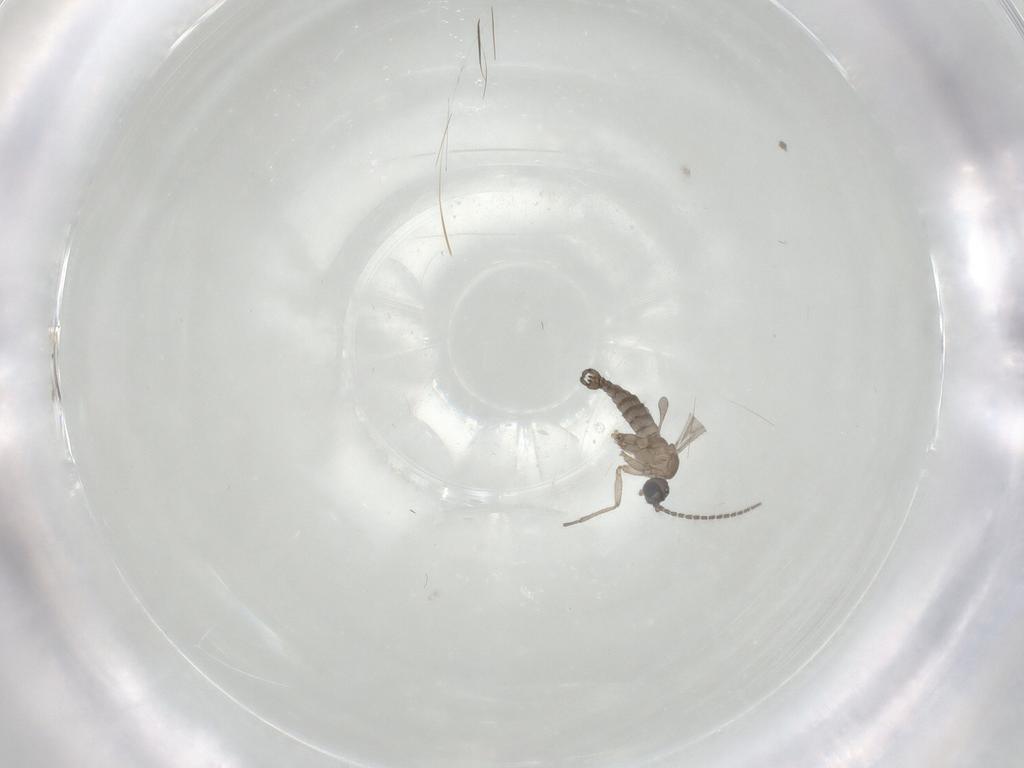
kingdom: Animalia
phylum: Arthropoda
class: Insecta
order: Diptera
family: Sciaridae
